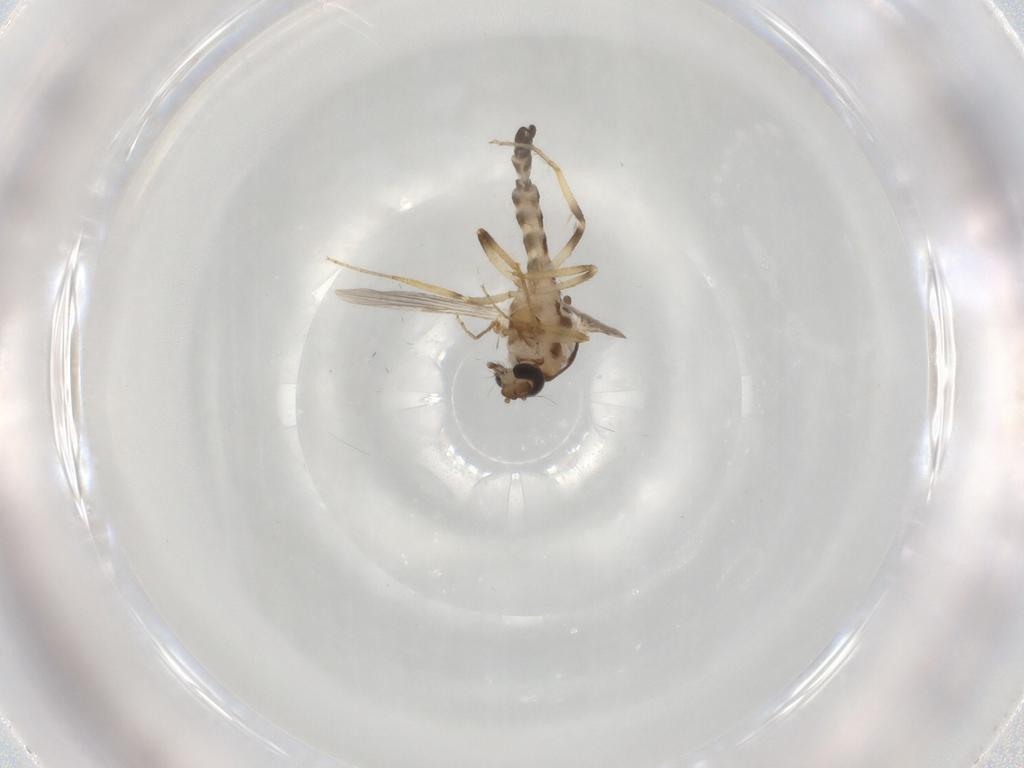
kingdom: Animalia
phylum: Arthropoda
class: Insecta
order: Diptera
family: Ceratopogonidae
